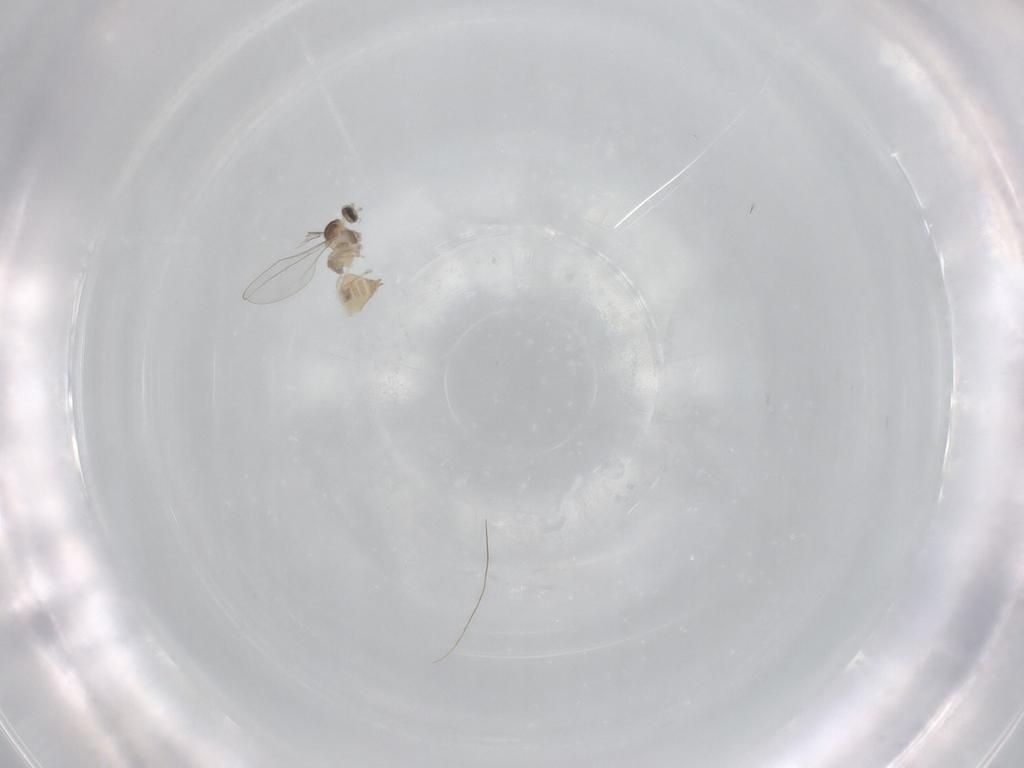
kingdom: Animalia
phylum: Arthropoda
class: Insecta
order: Diptera
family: Cecidomyiidae
